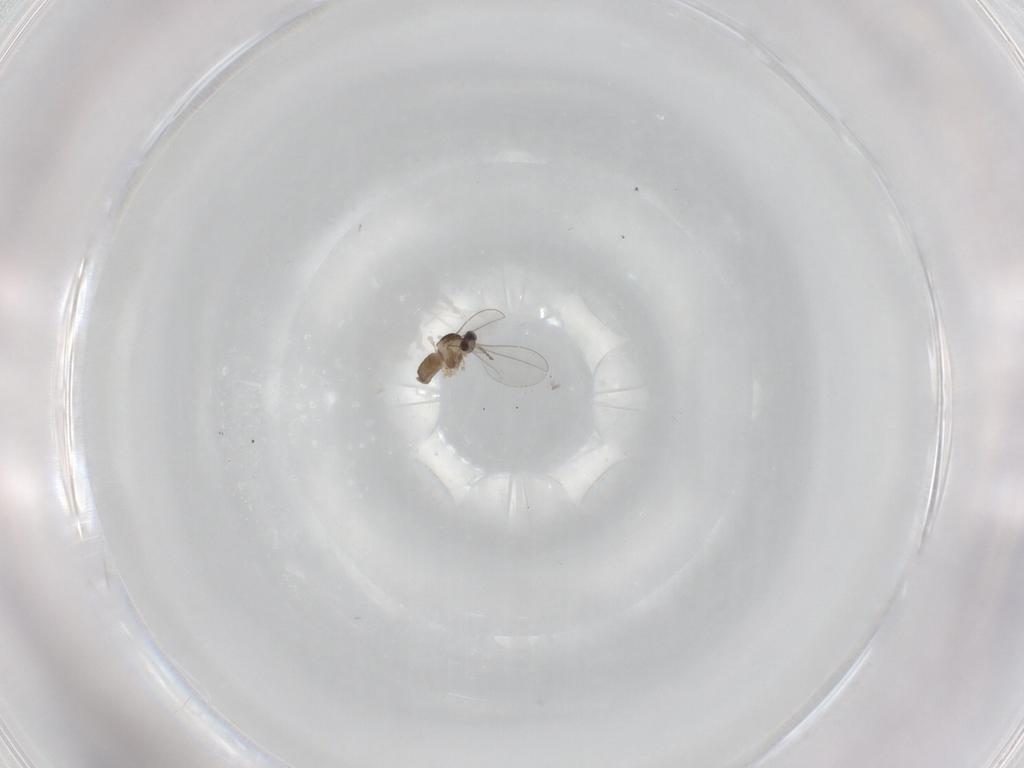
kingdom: Animalia
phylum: Arthropoda
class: Insecta
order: Diptera
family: Cecidomyiidae
